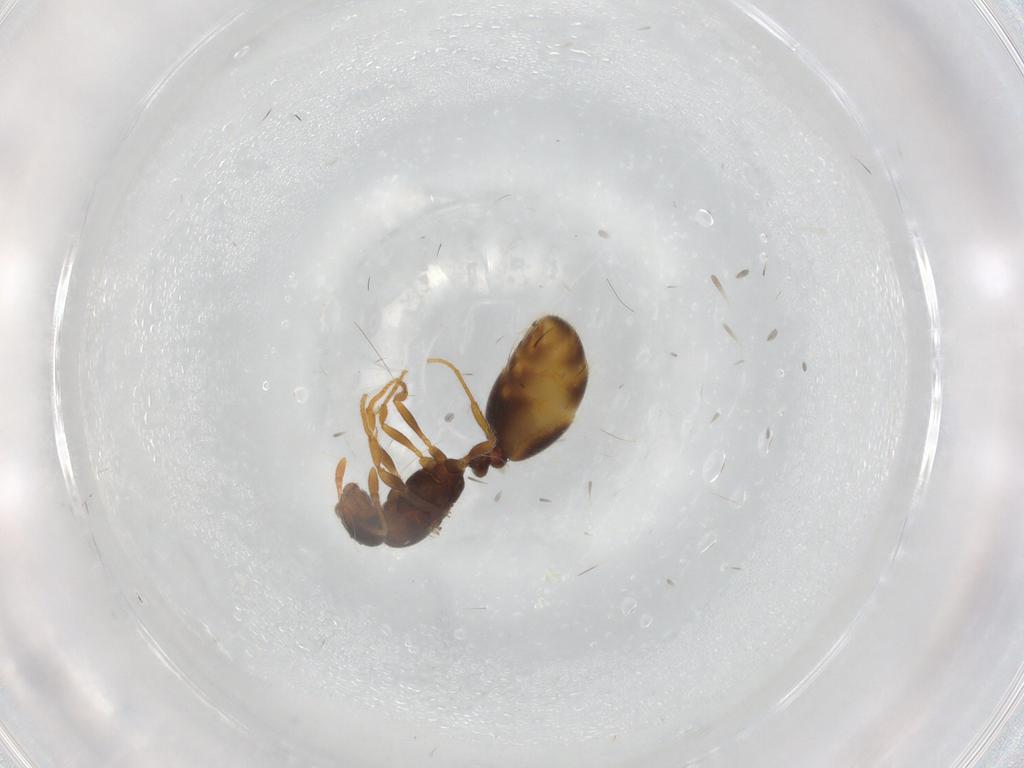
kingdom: Animalia
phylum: Arthropoda
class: Insecta
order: Hymenoptera
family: Formicidae
